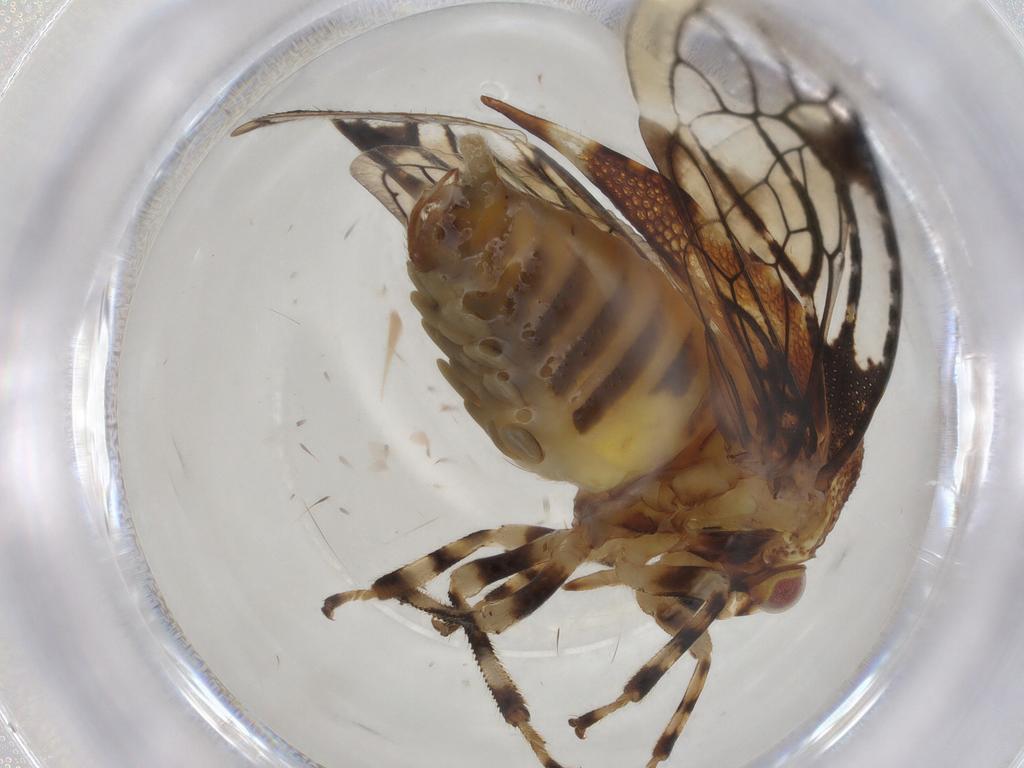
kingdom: Animalia
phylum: Arthropoda
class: Insecta
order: Hemiptera
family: Membracidae
